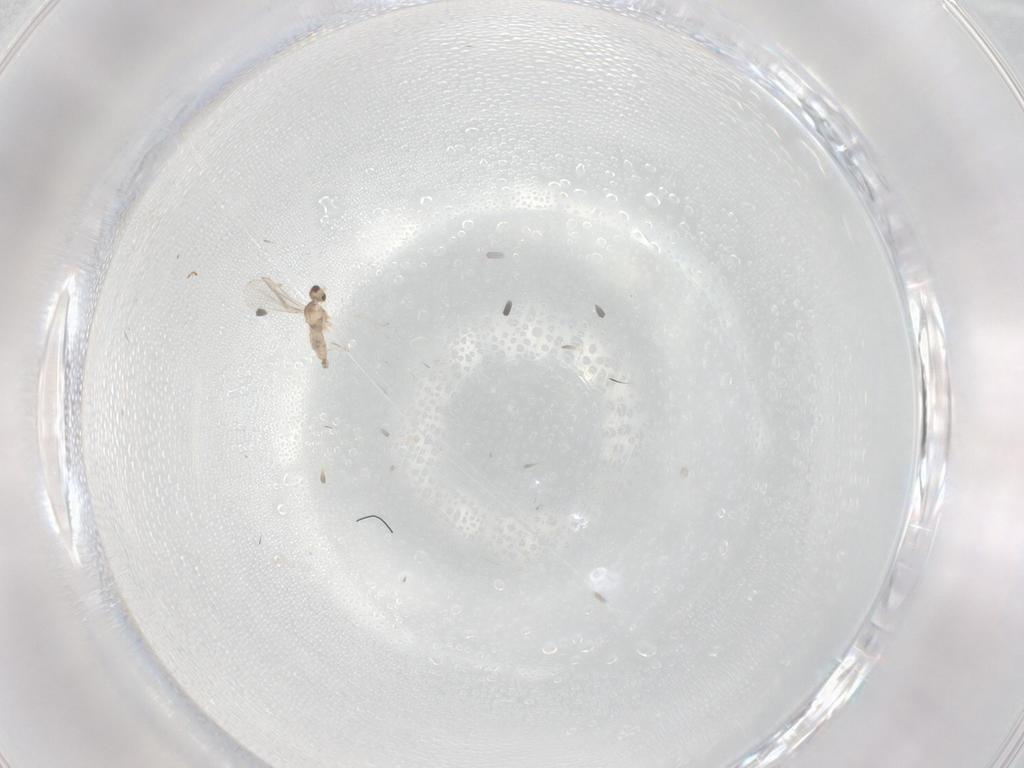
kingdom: Animalia
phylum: Arthropoda
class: Insecta
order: Diptera
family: Cecidomyiidae
